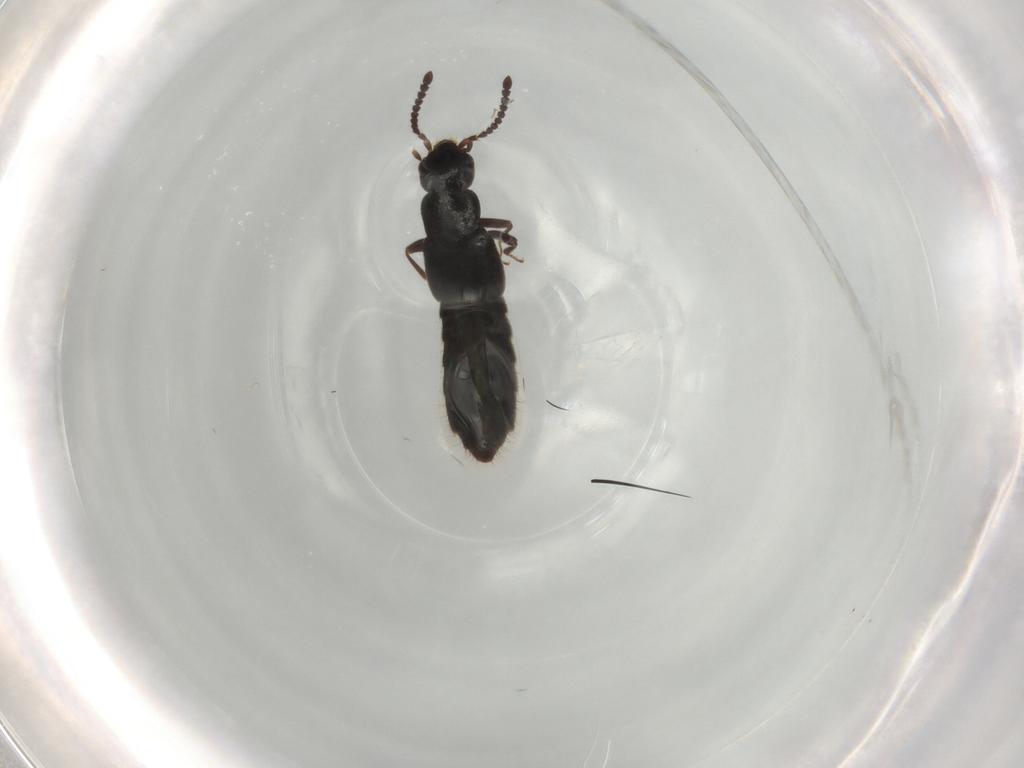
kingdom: Animalia
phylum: Arthropoda
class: Insecta
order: Coleoptera
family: Staphylinidae
